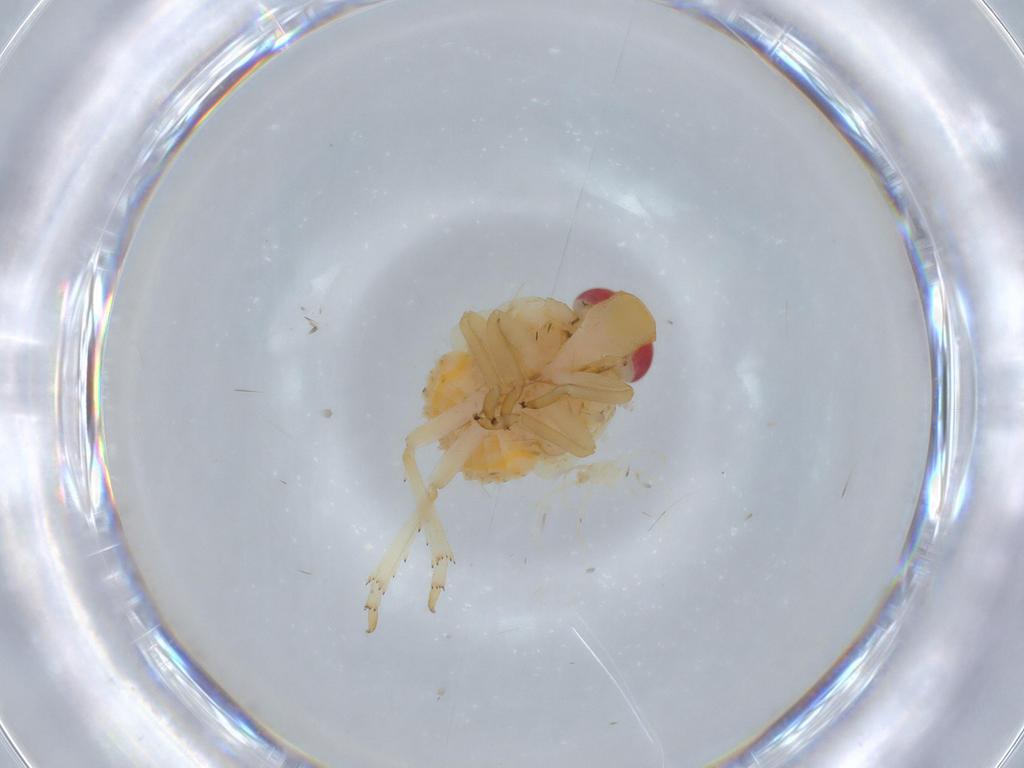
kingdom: Animalia
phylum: Arthropoda
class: Insecta
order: Hemiptera
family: Fulgoroidea_incertae_sedis
